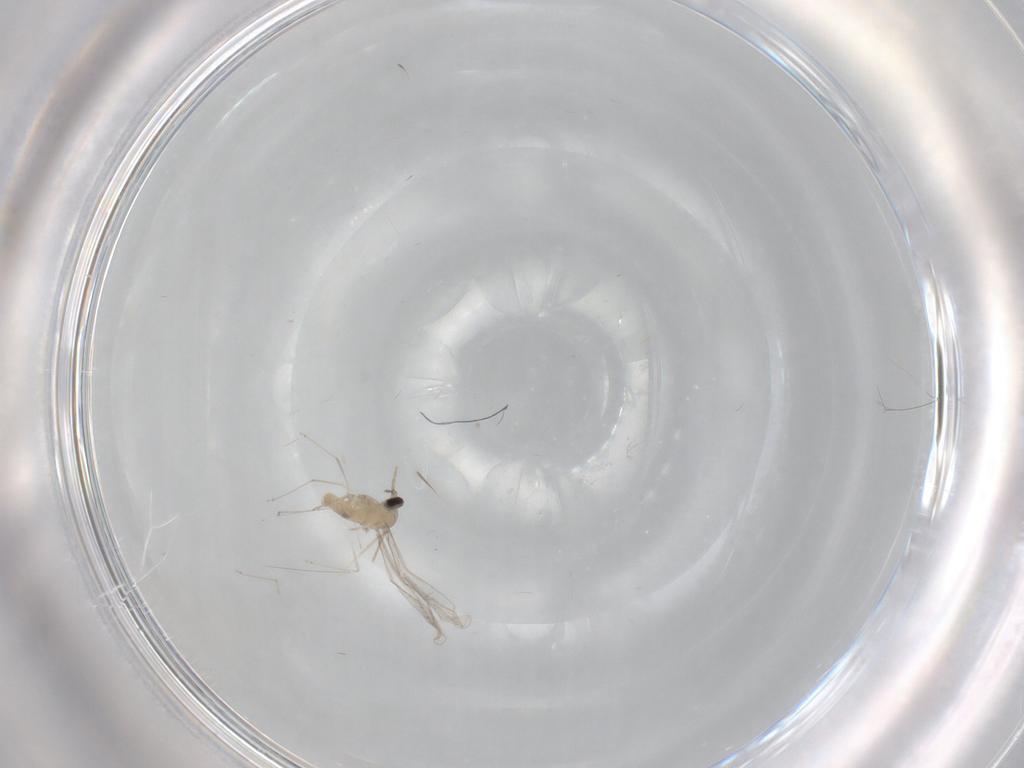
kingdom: Animalia
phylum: Arthropoda
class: Insecta
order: Diptera
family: Cecidomyiidae
